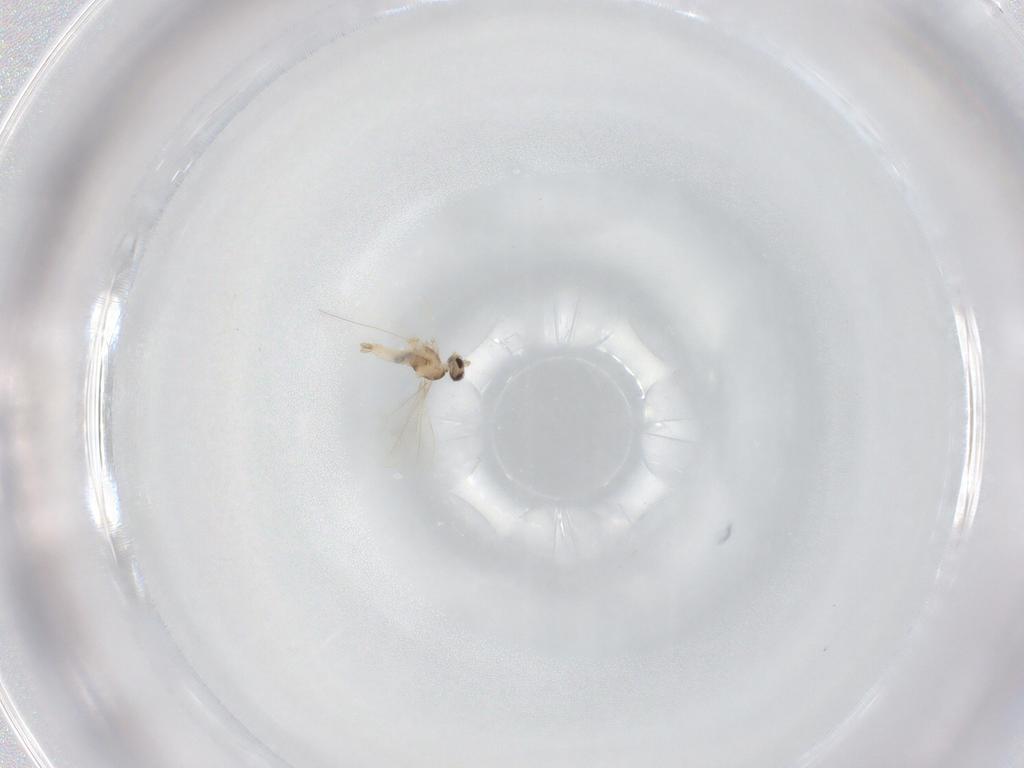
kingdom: Animalia
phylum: Arthropoda
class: Insecta
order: Diptera
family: Cecidomyiidae
